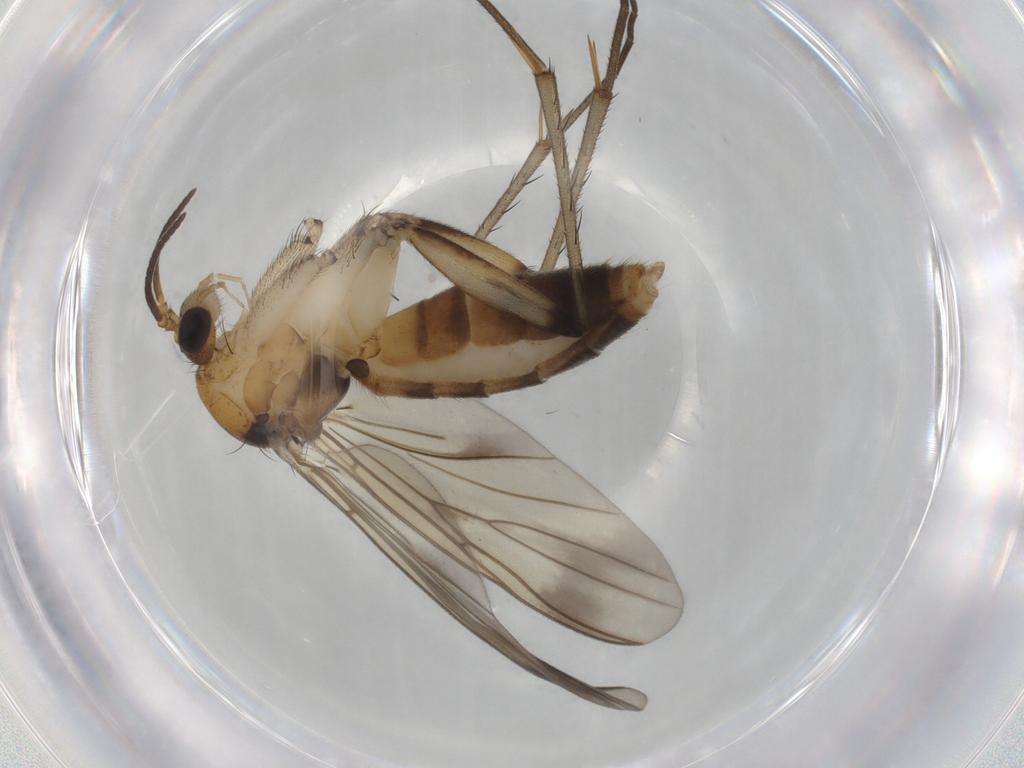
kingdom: Animalia
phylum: Arthropoda
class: Insecta
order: Diptera
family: Mycetophilidae
